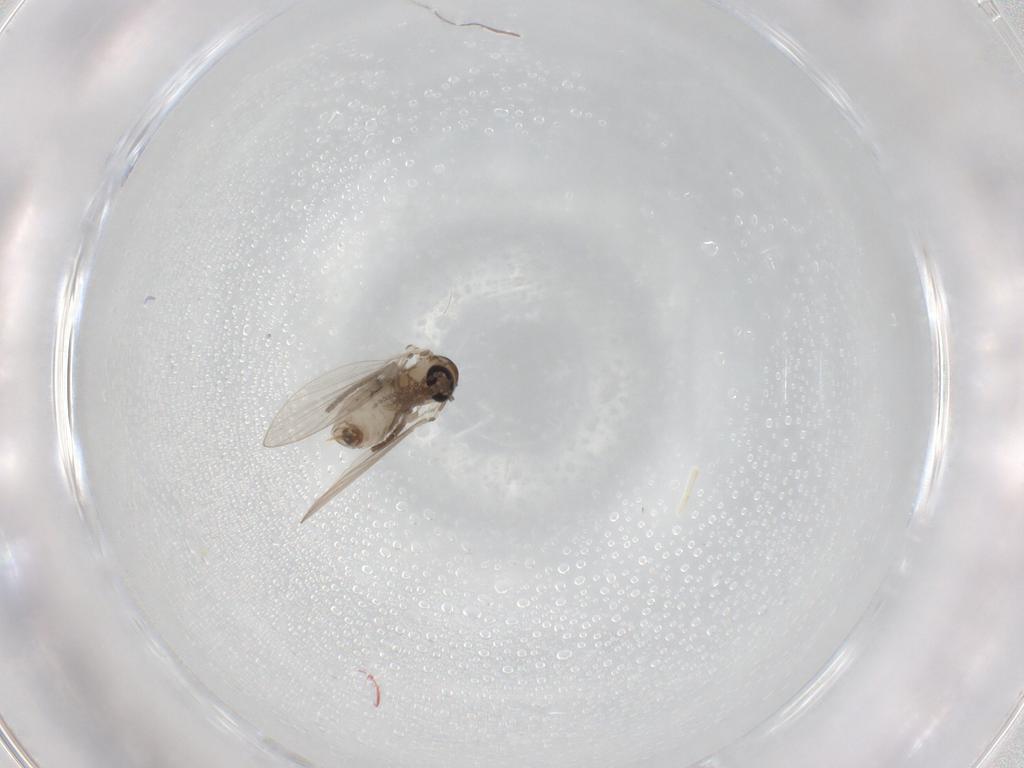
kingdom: Animalia
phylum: Arthropoda
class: Insecta
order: Diptera
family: Psychodidae
